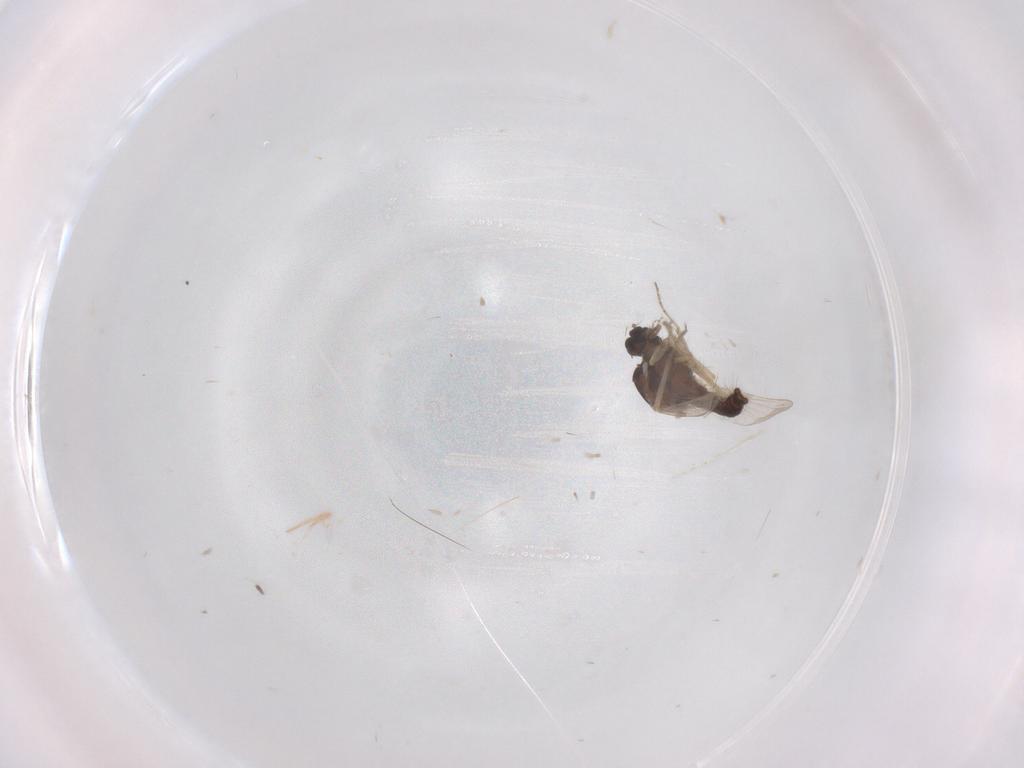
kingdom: Animalia
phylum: Arthropoda
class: Insecta
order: Diptera
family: Ceratopogonidae
